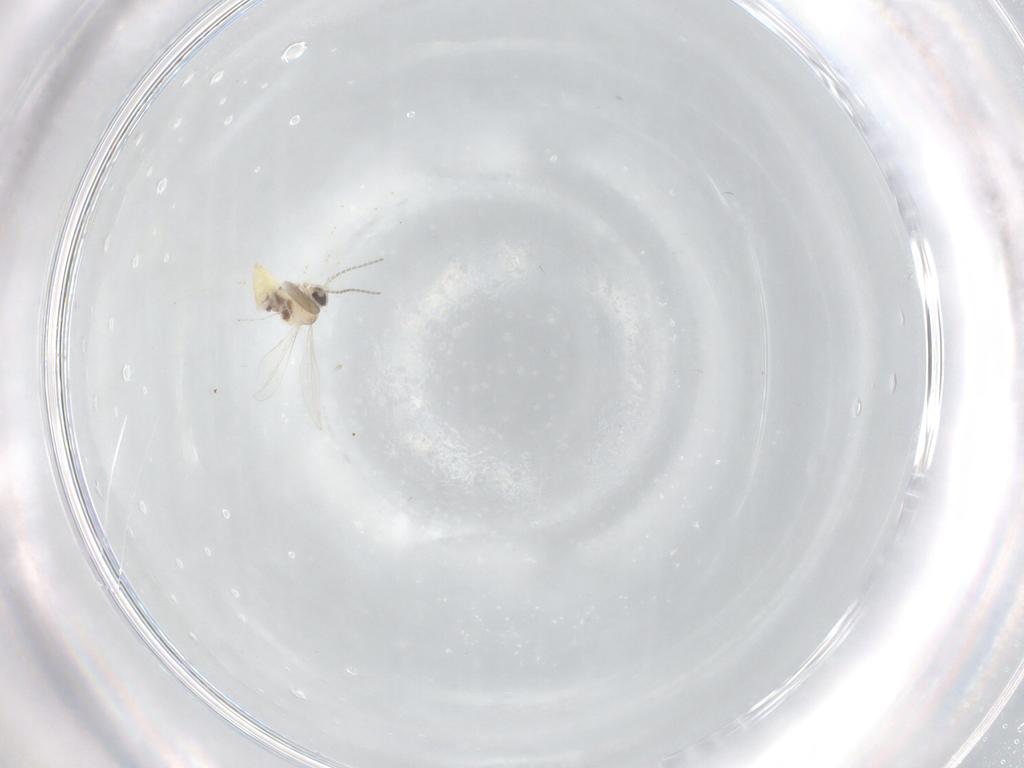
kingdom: Animalia
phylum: Arthropoda
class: Insecta
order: Diptera
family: Cecidomyiidae
